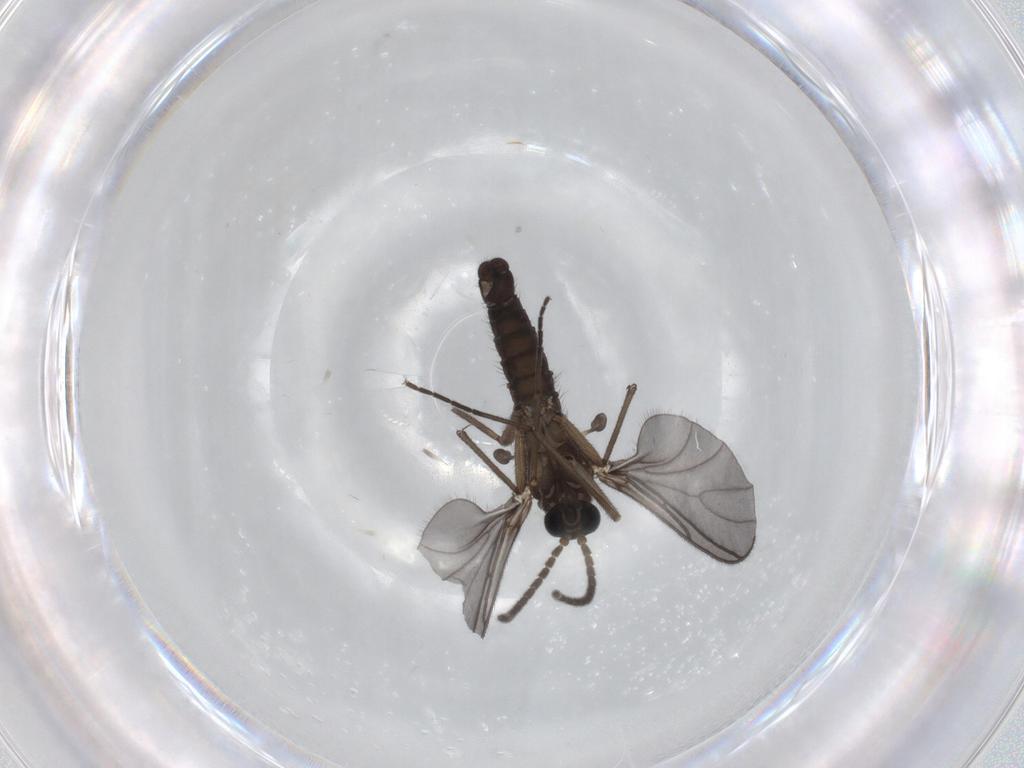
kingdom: Animalia
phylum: Arthropoda
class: Insecta
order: Diptera
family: Sciaridae
